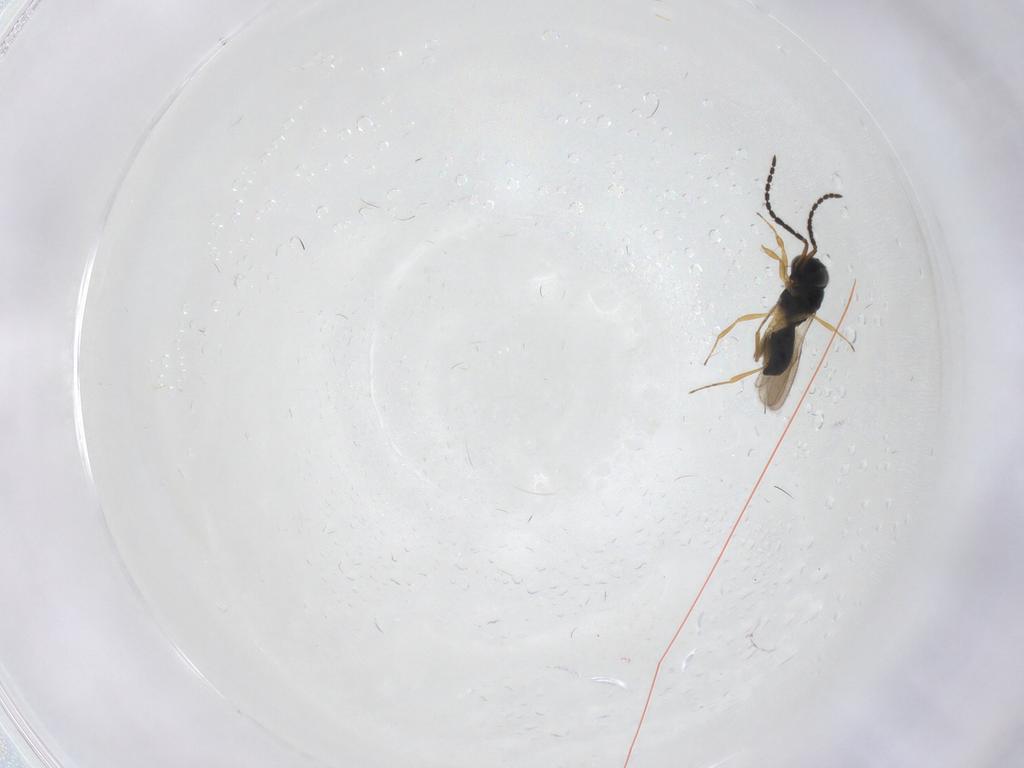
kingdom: Animalia
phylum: Arthropoda
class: Insecta
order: Hymenoptera
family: Scelionidae
